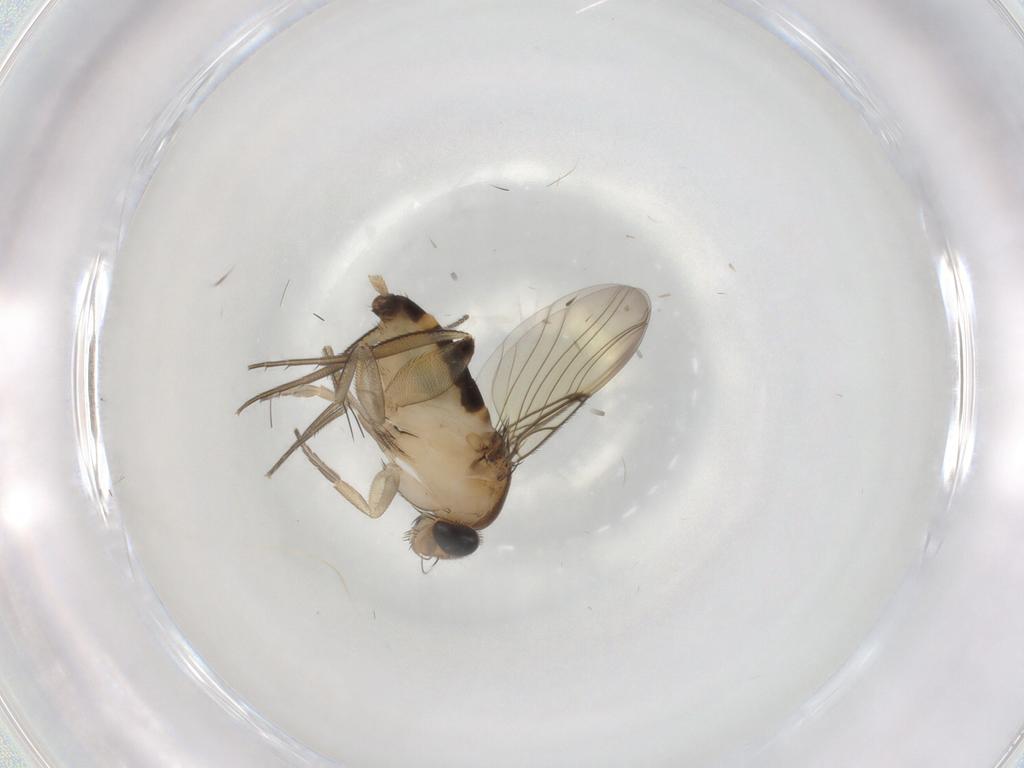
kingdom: Animalia
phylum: Arthropoda
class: Insecta
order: Diptera
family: Phoridae
